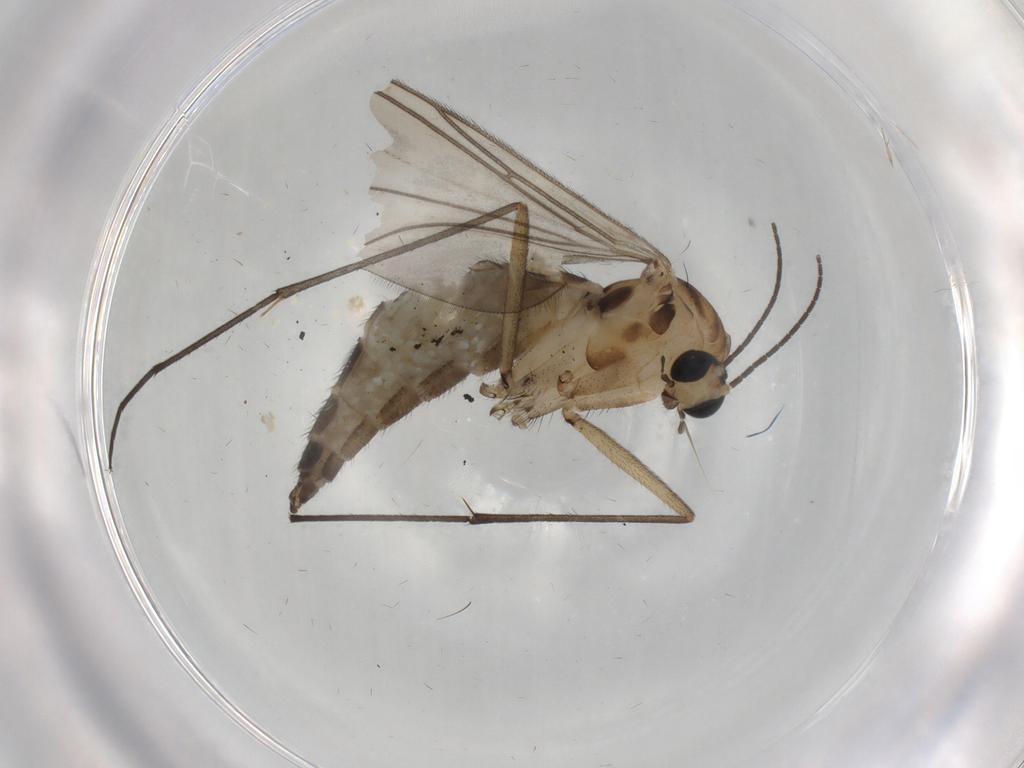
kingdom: Animalia
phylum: Arthropoda
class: Insecta
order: Diptera
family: Sciaridae
